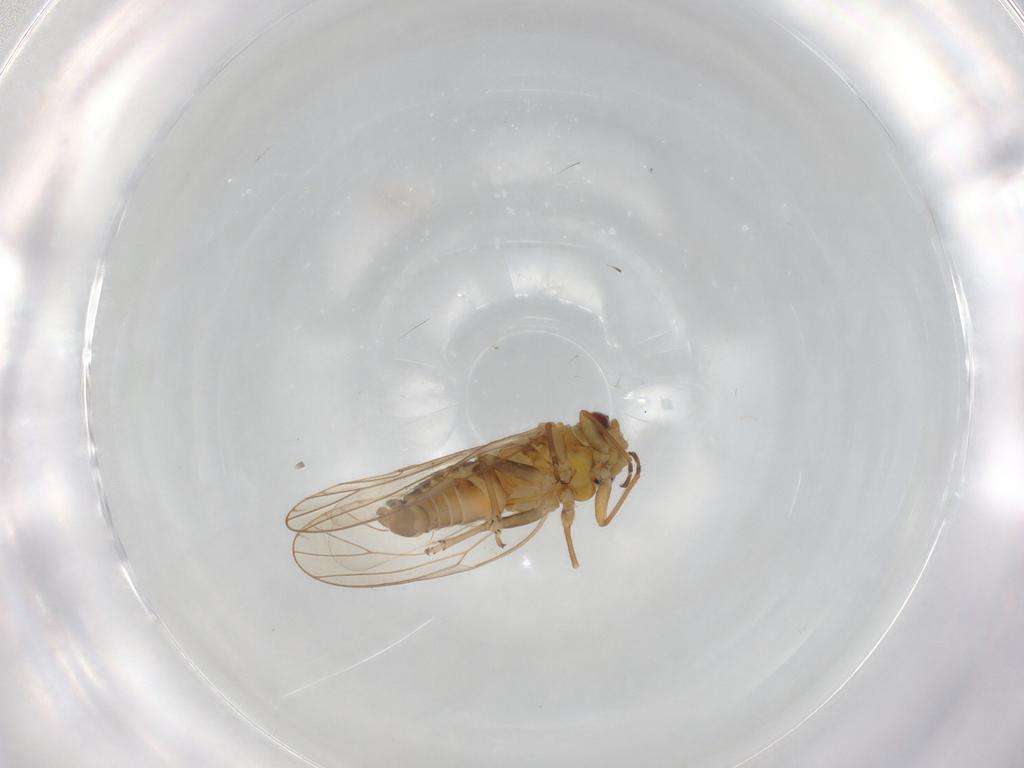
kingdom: Animalia
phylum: Arthropoda
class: Insecta
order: Hemiptera
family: Psyllidae
